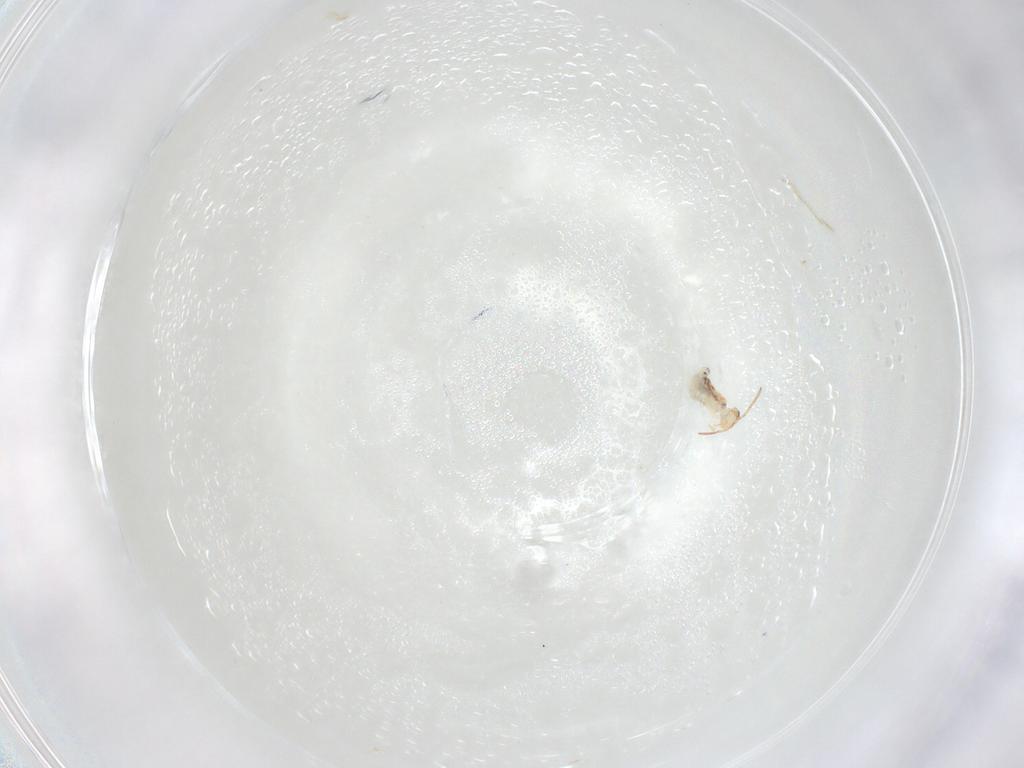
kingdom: Animalia
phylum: Arthropoda
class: Collembola
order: Symphypleona
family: Bourletiellidae
